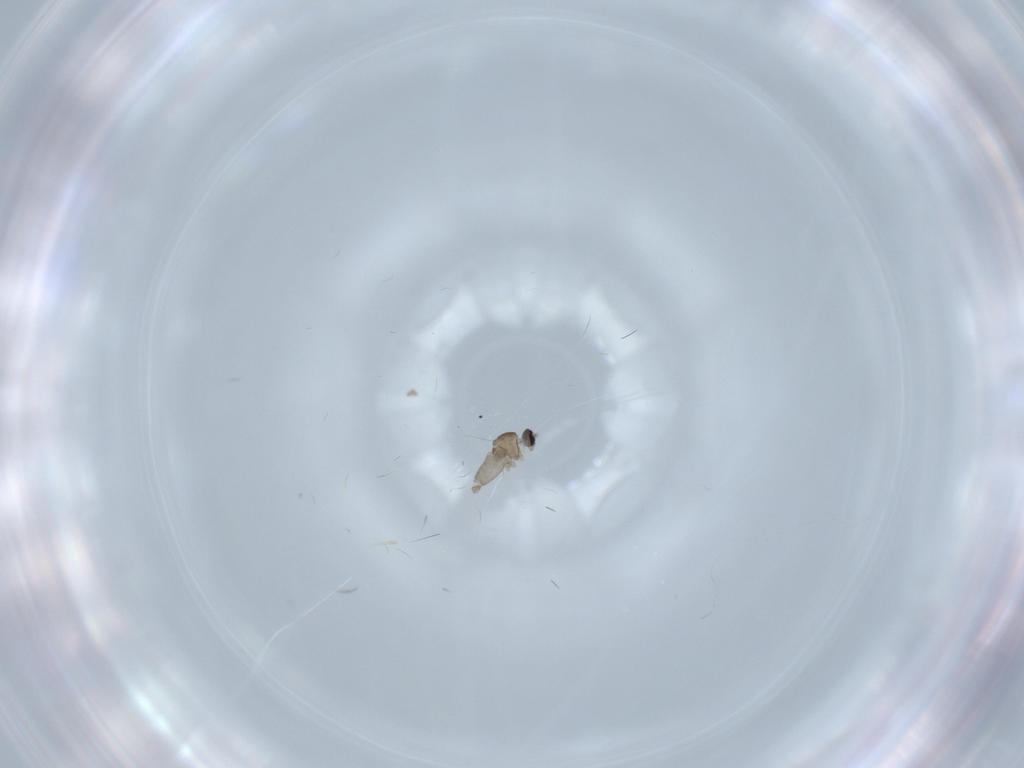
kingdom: Animalia
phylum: Arthropoda
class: Insecta
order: Diptera
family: Cecidomyiidae
